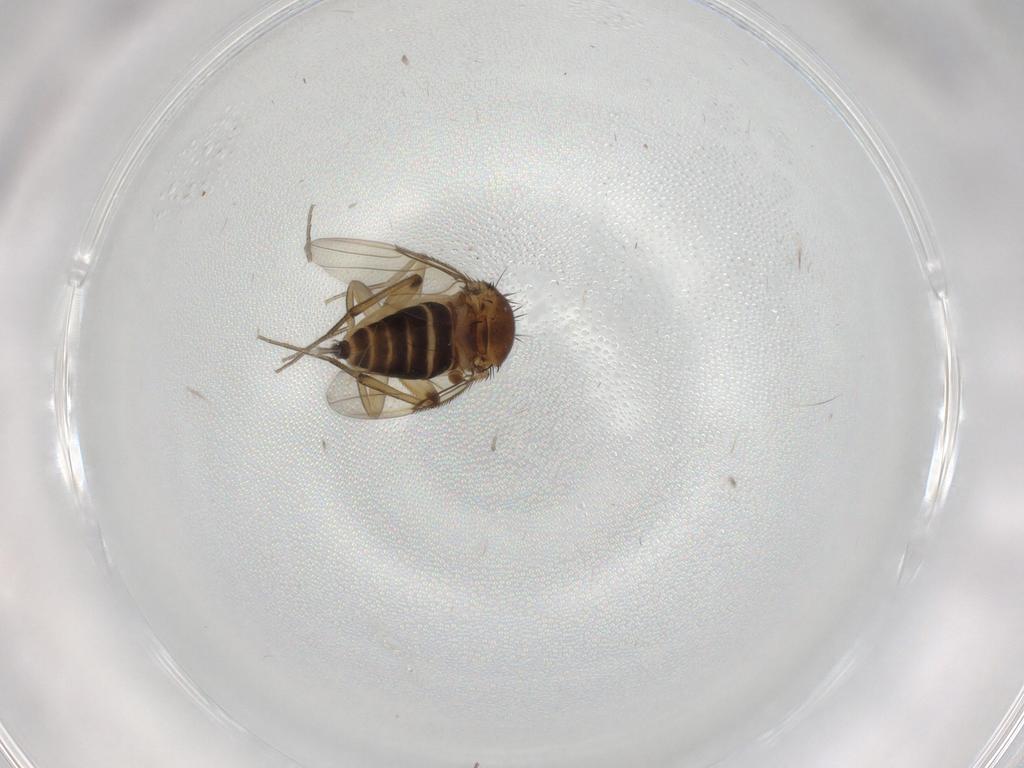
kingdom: Animalia
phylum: Arthropoda
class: Insecta
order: Diptera
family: Cecidomyiidae
